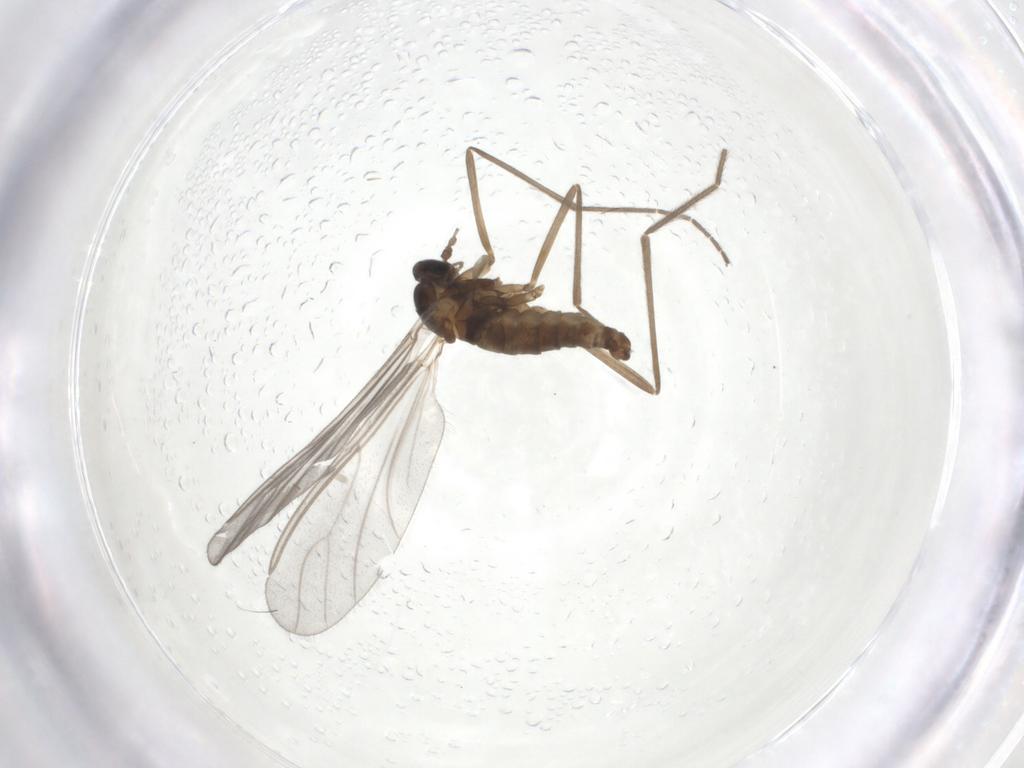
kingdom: Animalia
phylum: Arthropoda
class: Insecta
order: Diptera
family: Cecidomyiidae
